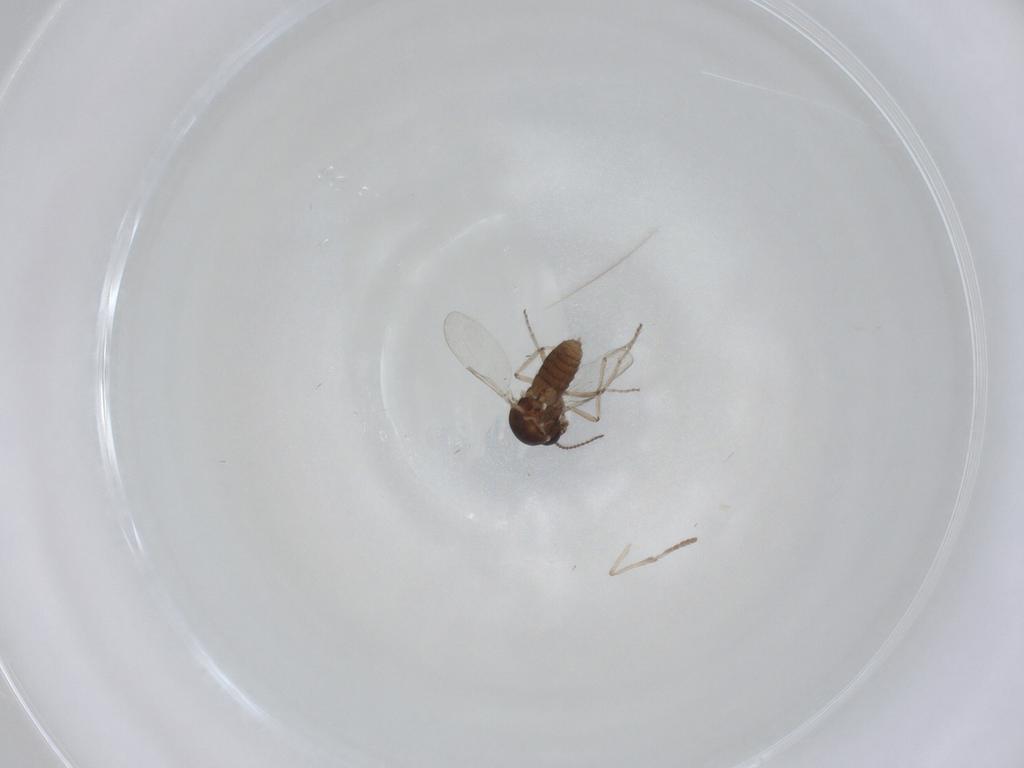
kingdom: Animalia
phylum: Arthropoda
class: Insecta
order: Diptera
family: Ceratopogonidae
